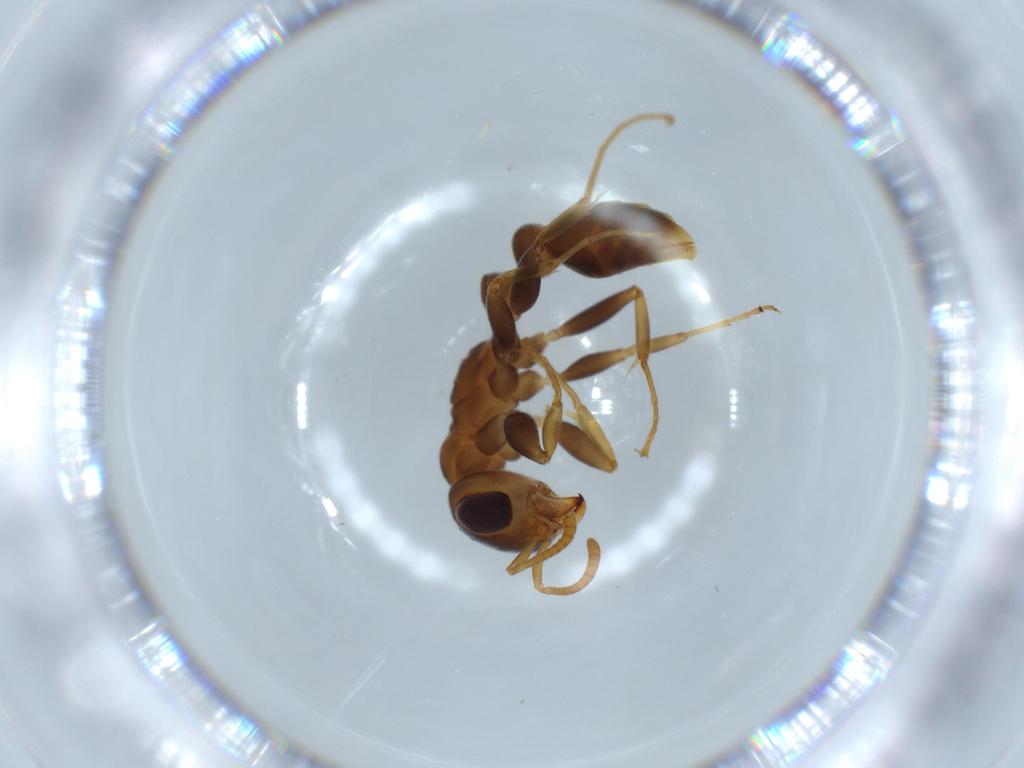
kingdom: Animalia
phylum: Arthropoda
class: Insecta
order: Hymenoptera
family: Formicidae
